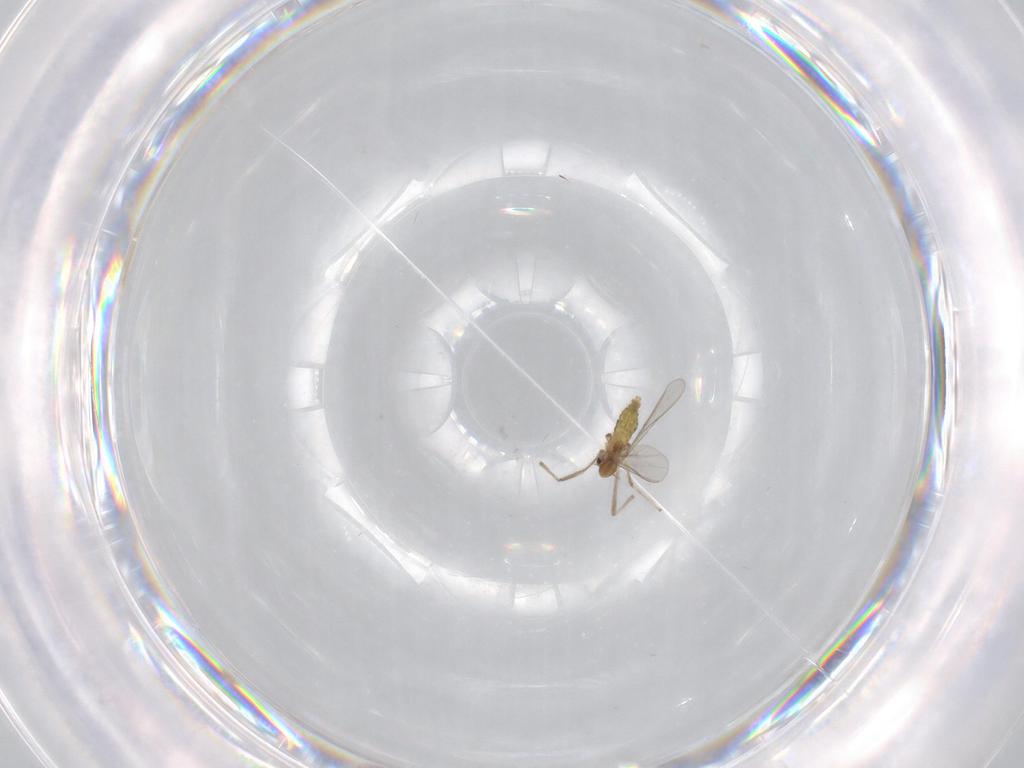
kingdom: Animalia
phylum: Arthropoda
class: Insecta
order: Diptera
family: Chironomidae
